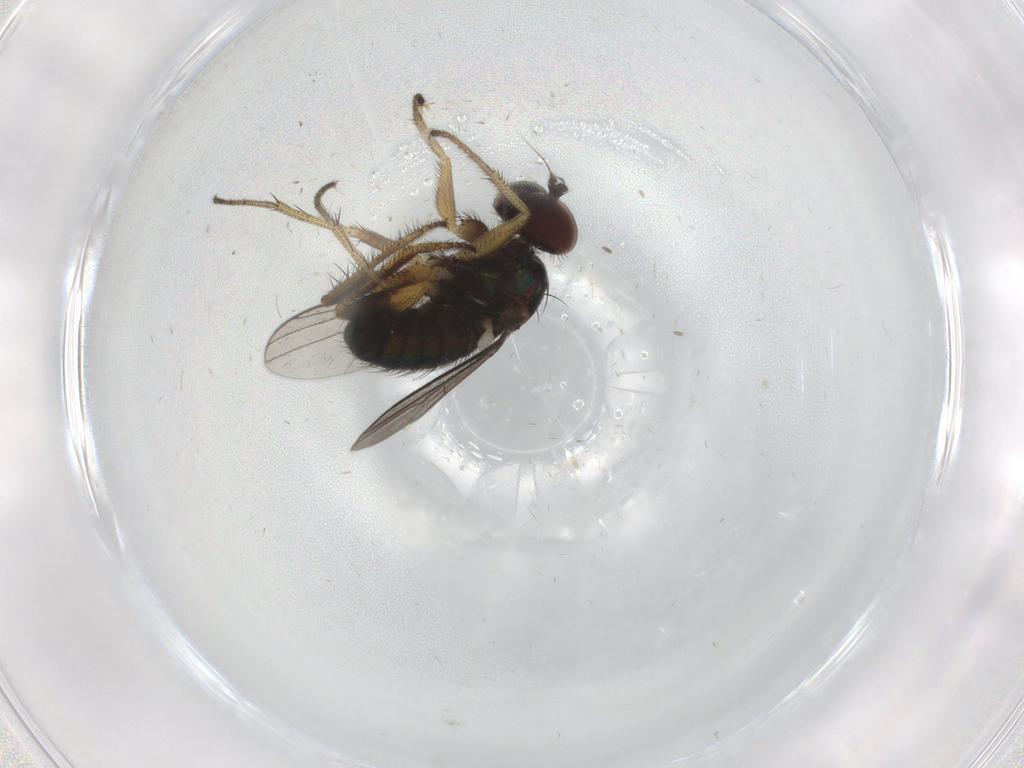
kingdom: Animalia
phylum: Arthropoda
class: Insecta
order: Diptera
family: Dolichopodidae
